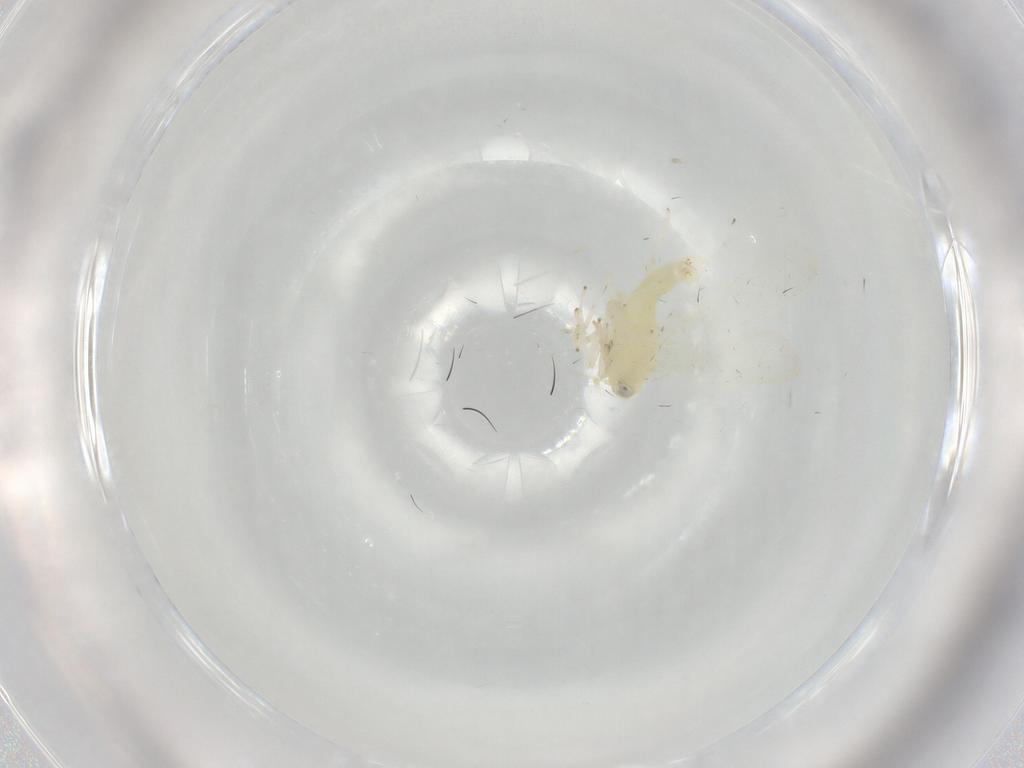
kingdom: Animalia
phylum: Arthropoda
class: Insecta
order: Hemiptera
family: Cicadellidae
